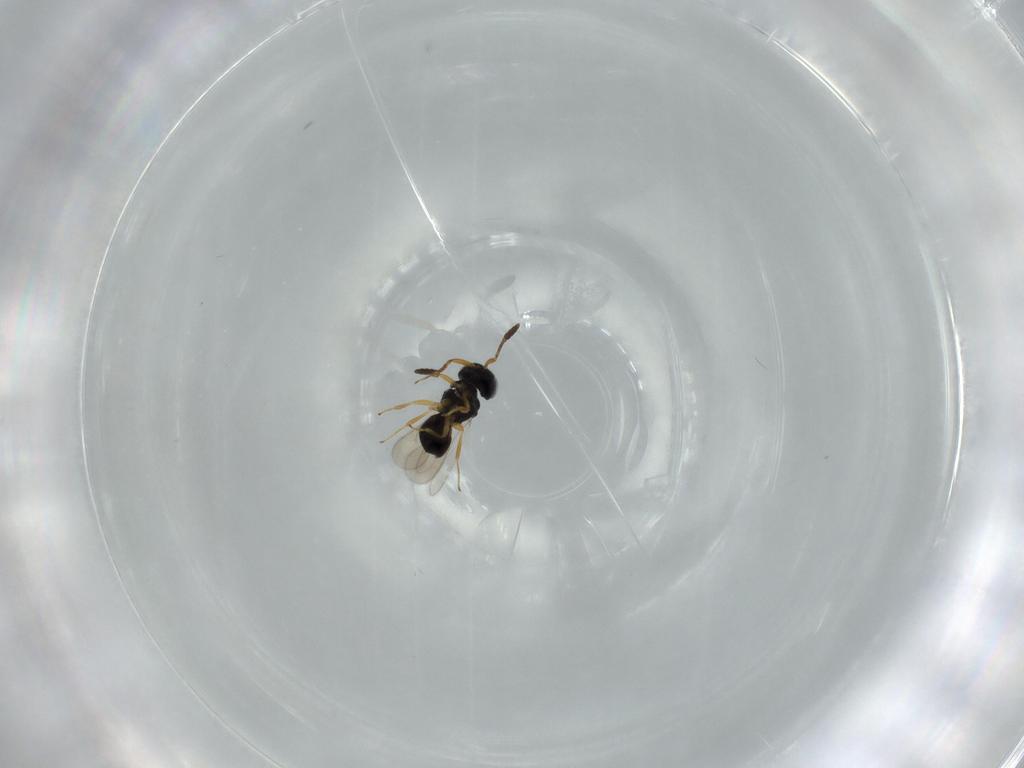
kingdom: Animalia
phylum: Arthropoda
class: Insecta
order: Hymenoptera
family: Scelionidae
